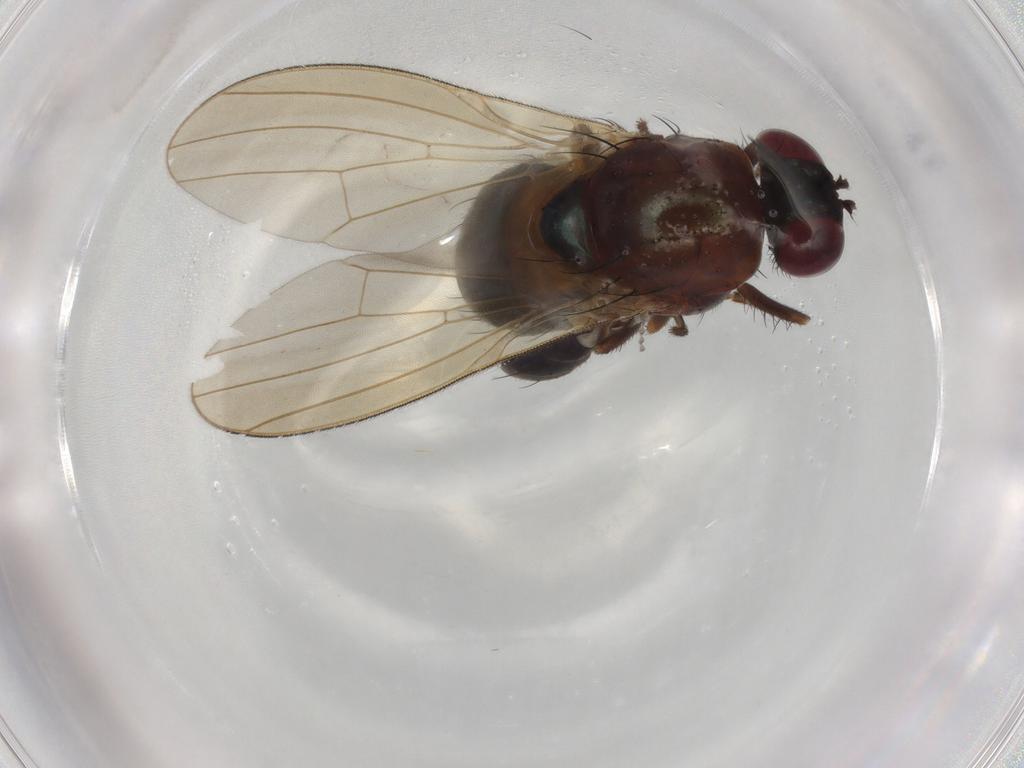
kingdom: Animalia
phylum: Arthropoda
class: Insecta
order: Diptera
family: Lauxaniidae
